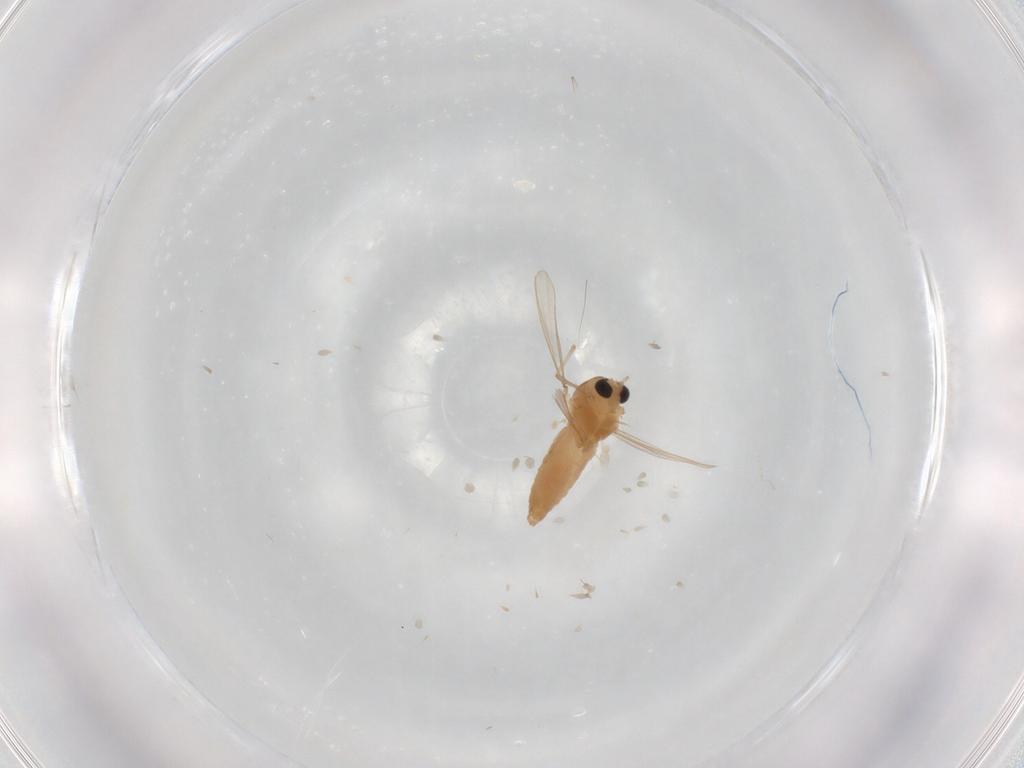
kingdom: Animalia
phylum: Arthropoda
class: Insecta
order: Diptera
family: Chironomidae
